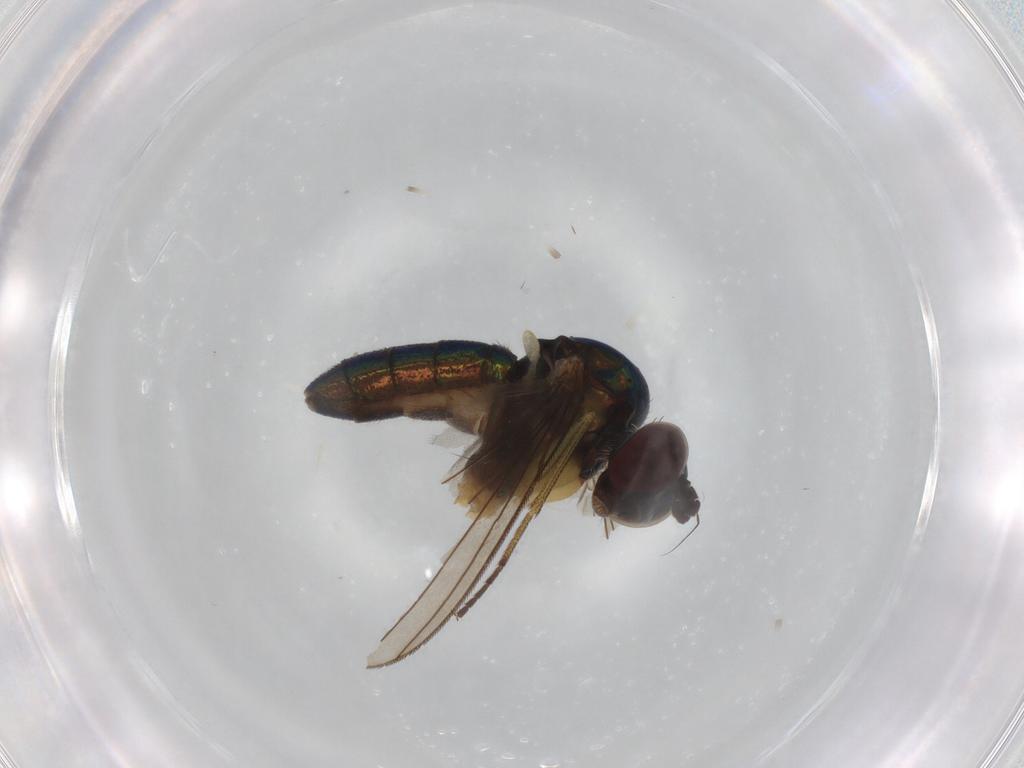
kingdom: Animalia
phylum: Arthropoda
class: Insecta
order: Diptera
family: Dolichopodidae
